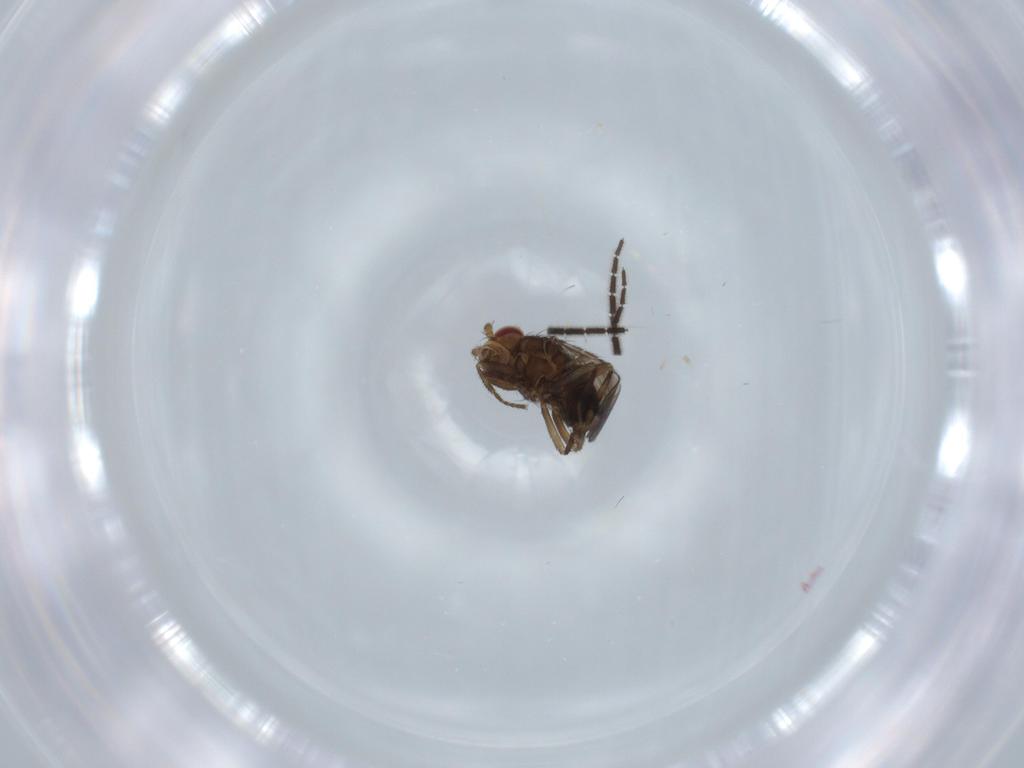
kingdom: Animalia
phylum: Arthropoda
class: Insecta
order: Diptera
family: Sciaridae
